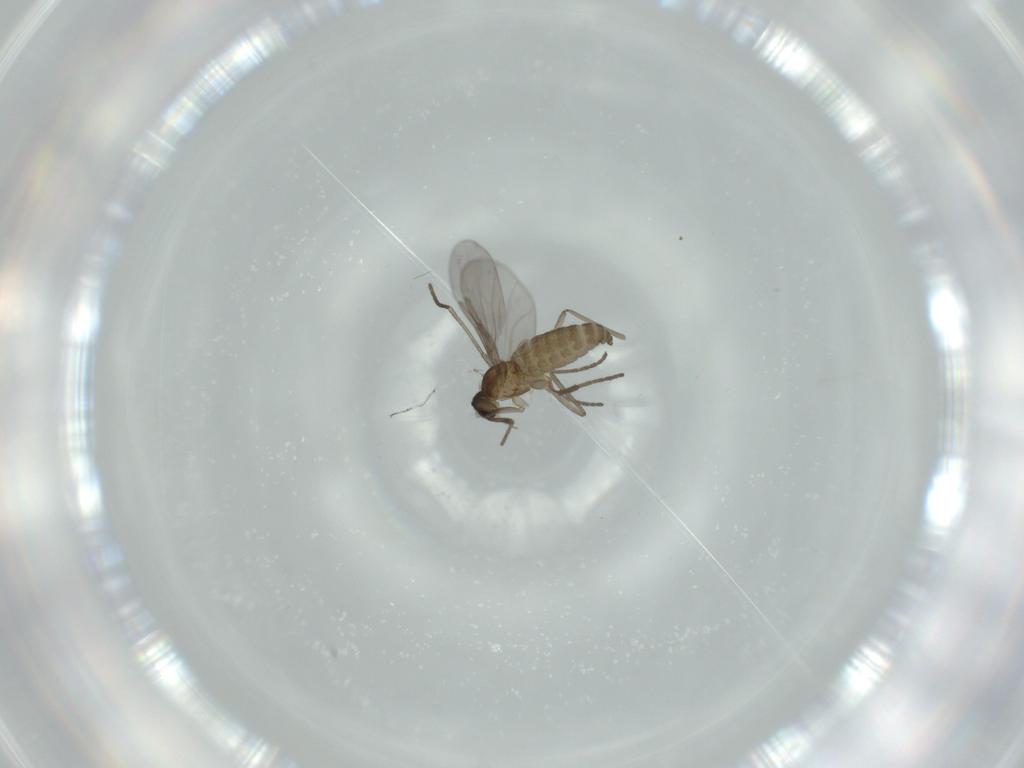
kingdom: Animalia
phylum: Arthropoda
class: Insecta
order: Diptera
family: Cecidomyiidae
